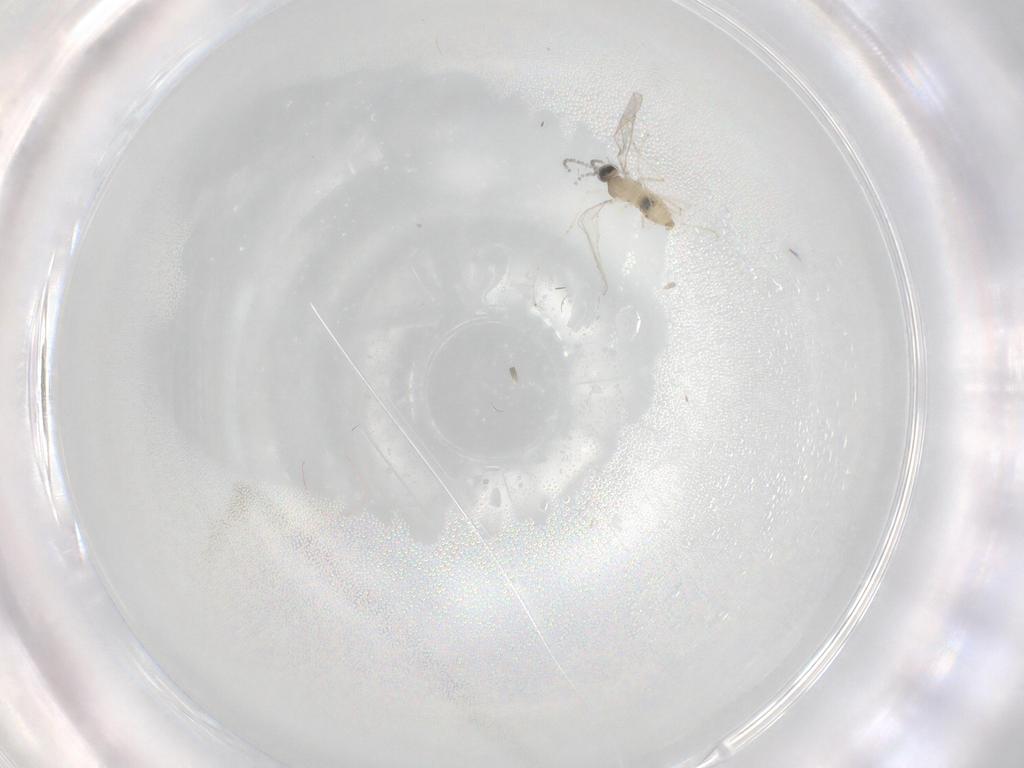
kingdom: Animalia
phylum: Arthropoda
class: Insecta
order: Diptera
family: Cecidomyiidae
